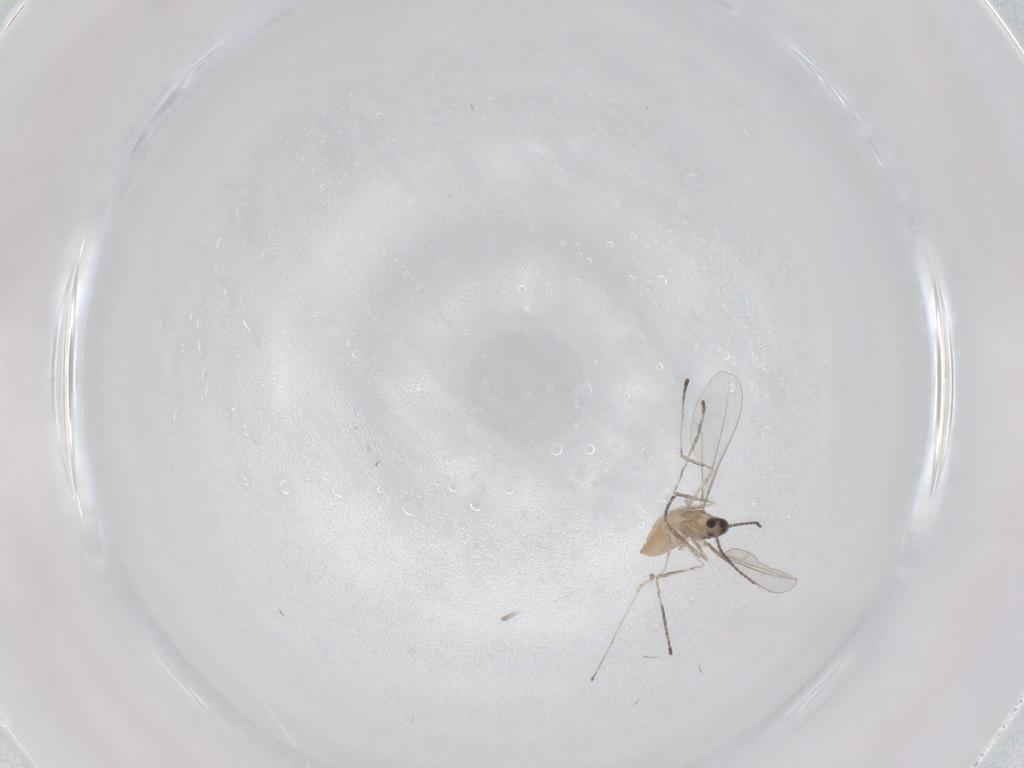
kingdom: Animalia
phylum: Arthropoda
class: Insecta
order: Diptera
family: Cecidomyiidae
